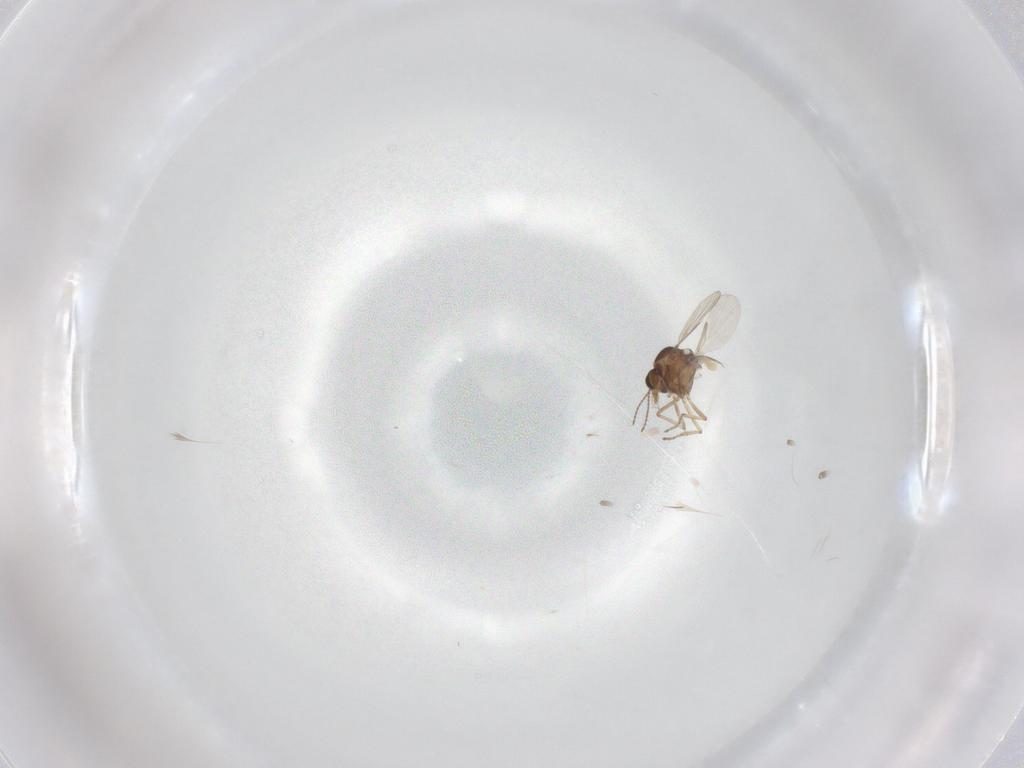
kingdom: Animalia
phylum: Arthropoda
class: Insecta
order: Diptera
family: Ceratopogonidae
